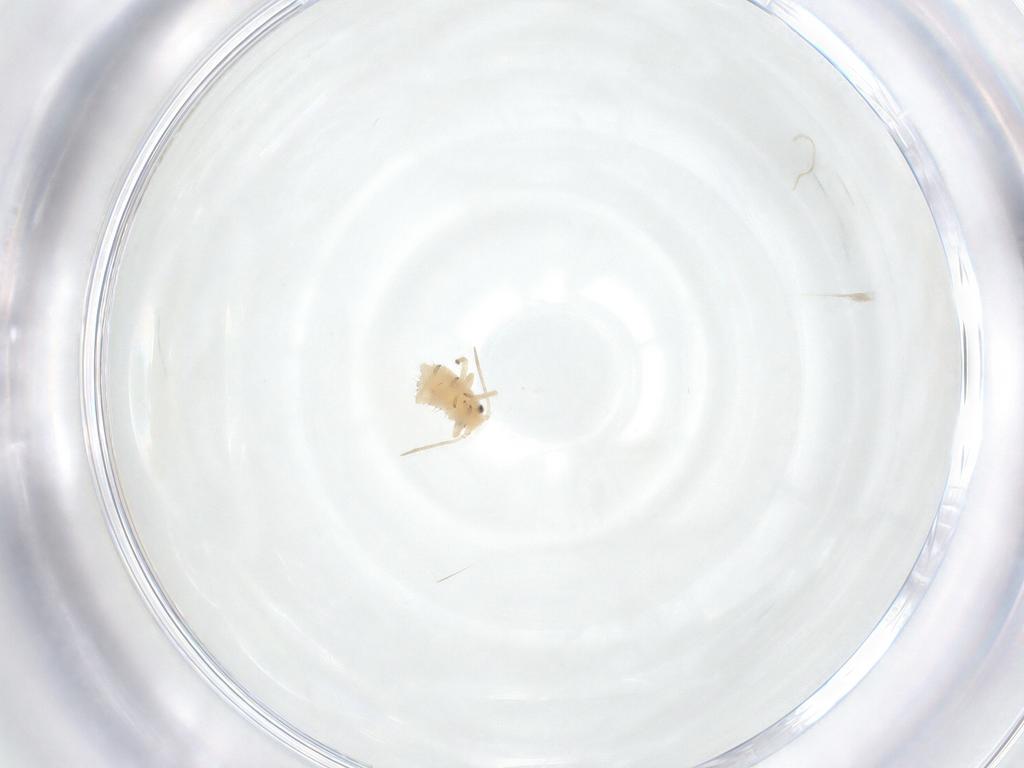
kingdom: Animalia
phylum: Arthropoda
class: Insecta
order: Hemiptera
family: Aphididae
